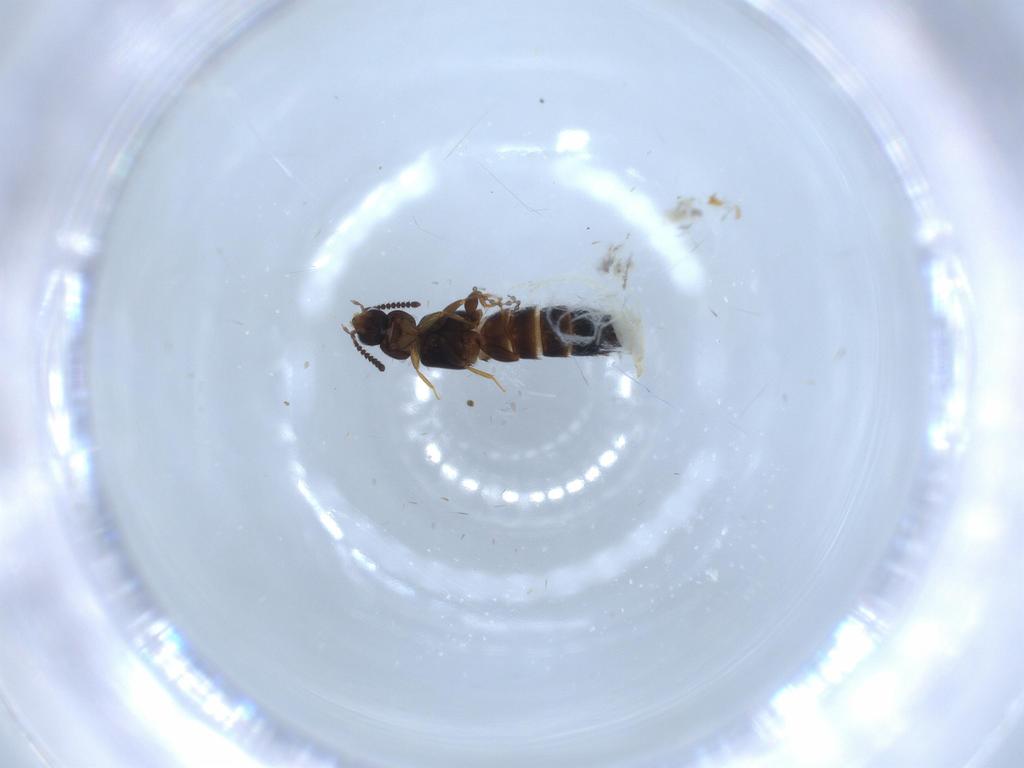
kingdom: Animalia
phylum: Arthropoda
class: Insecta
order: Coleoptera
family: Staphylinidae
